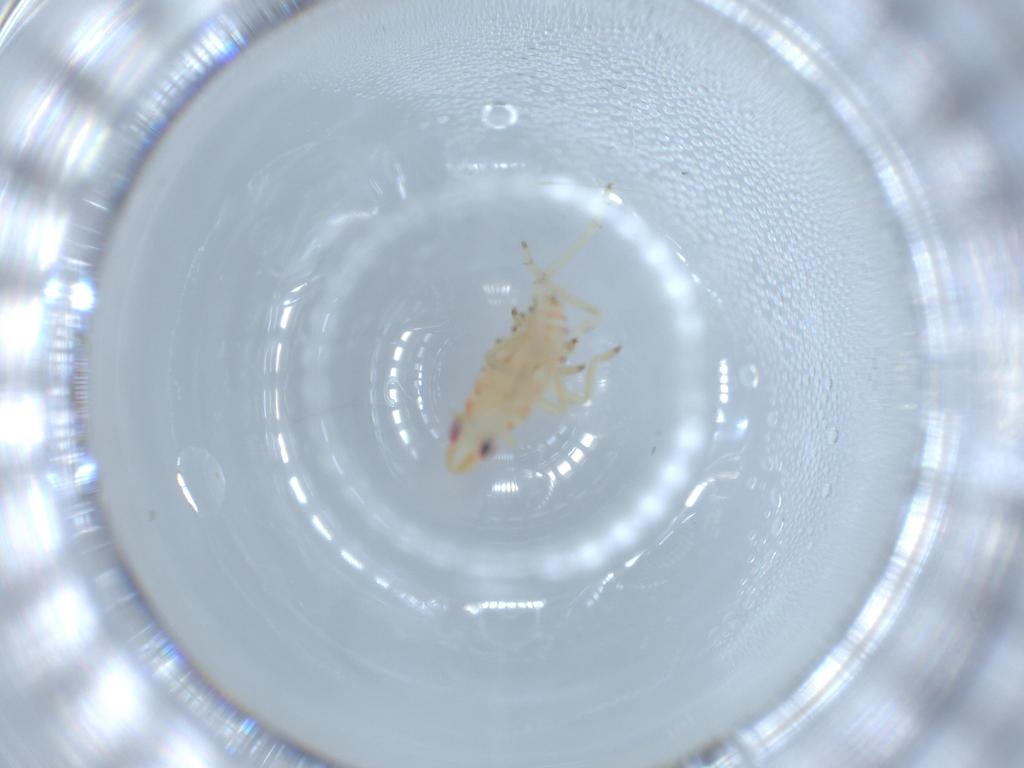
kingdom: Animalia
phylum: Arthropoda
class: Insecta
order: Hemiptera
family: Tropiduchidae
